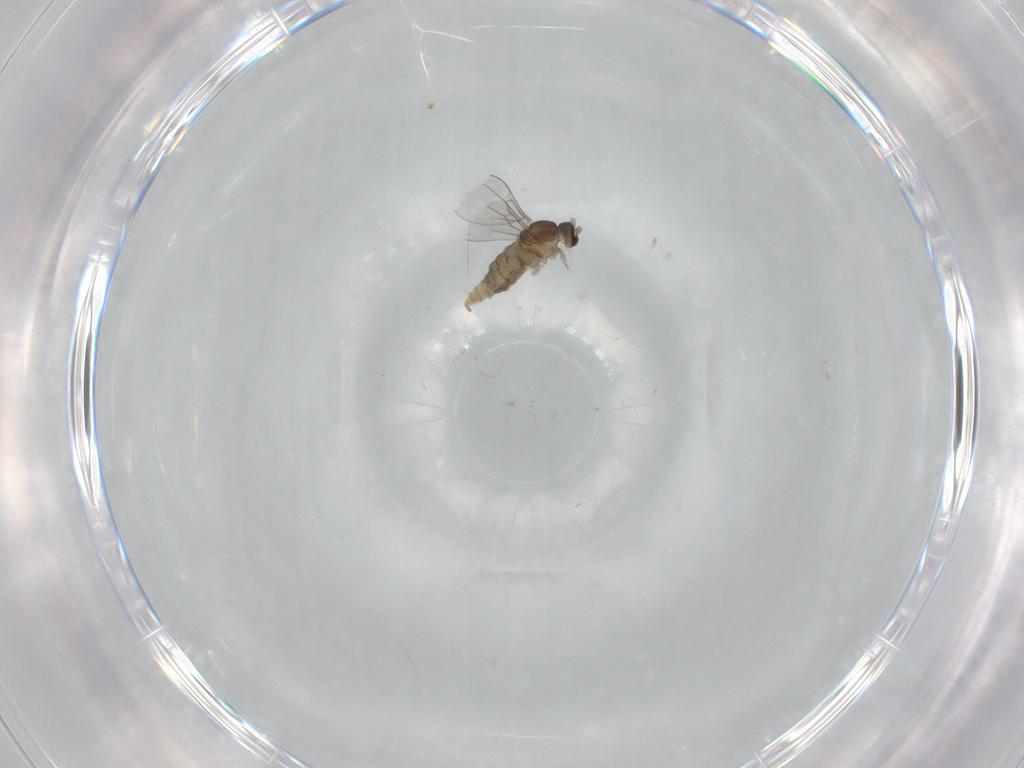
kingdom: Animalia
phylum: Arthropoda
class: Insecta
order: Diptera
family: Cecidomyiidae
